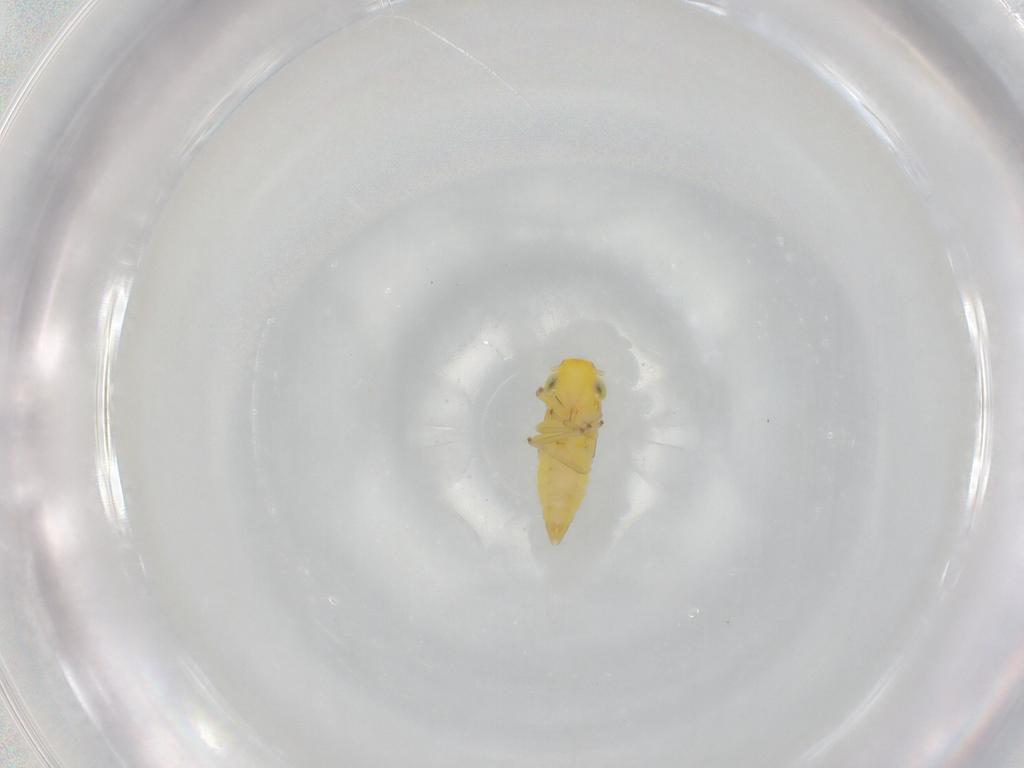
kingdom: Animalia
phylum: Arthropoda
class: Insecta
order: Hemiptera
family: Cicadellidae
